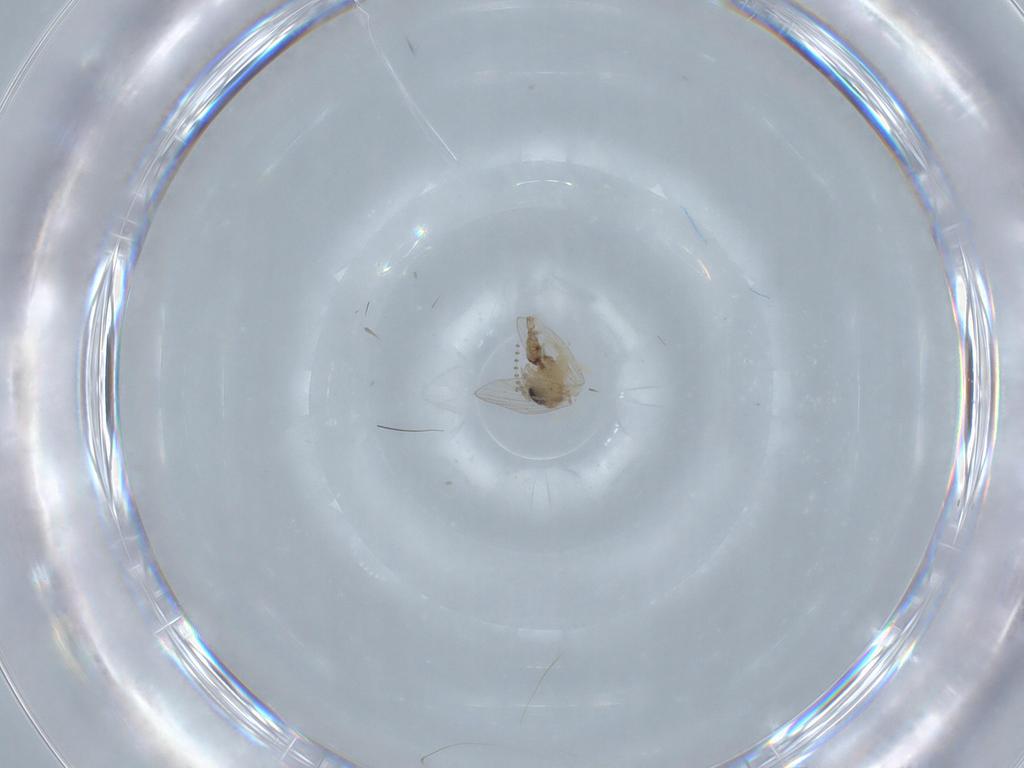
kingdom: Animalia
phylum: Arthropoda
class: Insecta
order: Diptera
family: Psychodidae
